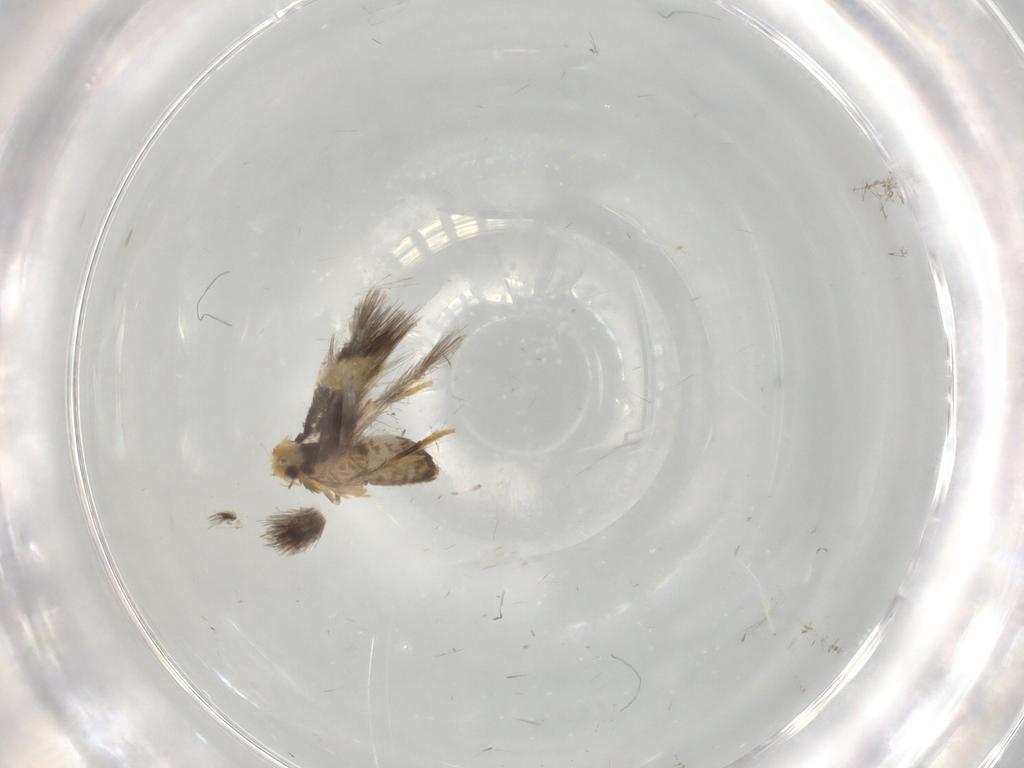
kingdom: Animalia
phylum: Arthropoda
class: Insecta
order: Lepidoptera
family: Nepticulidae
